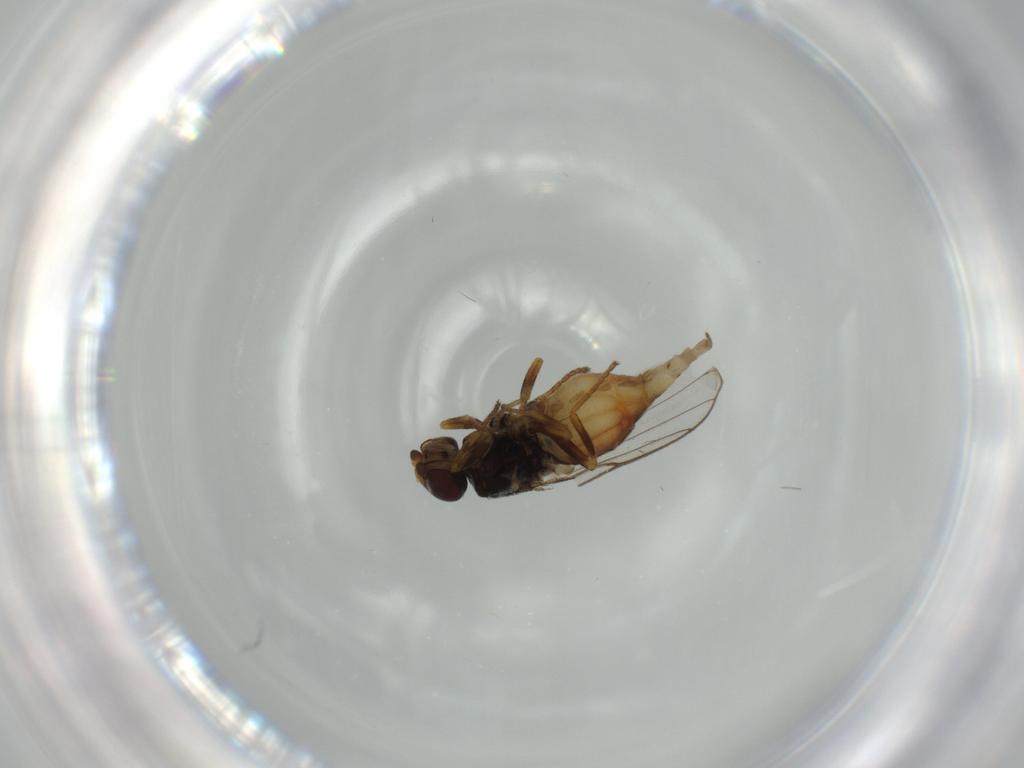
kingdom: Animalia
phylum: Arthropoda
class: Insecta
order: Diptera
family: Chloropidae
